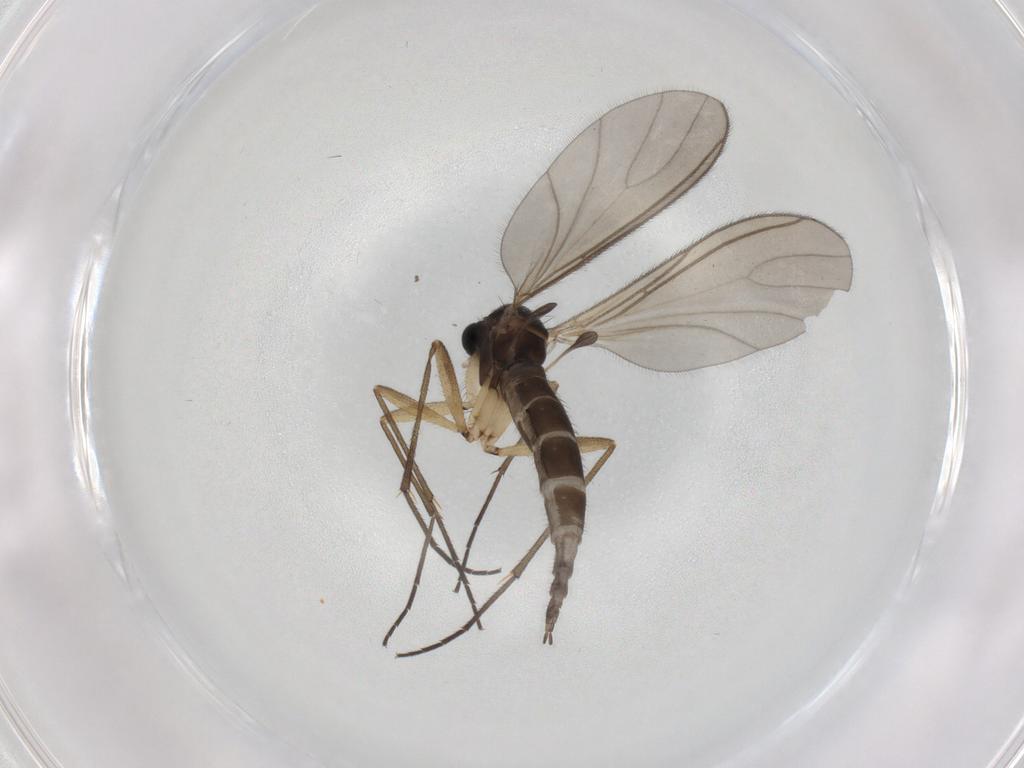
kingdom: Animalia
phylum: Arthropoda
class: Insecta
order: Diptera
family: Sciaridae
